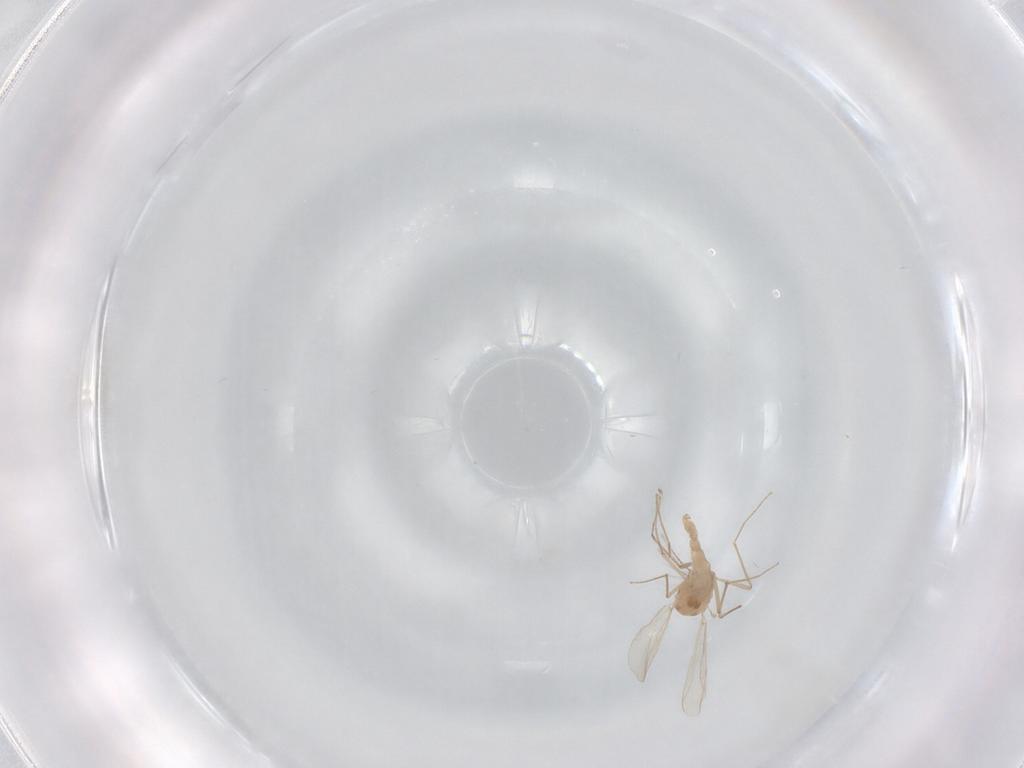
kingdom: Animalia
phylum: Arthropoda
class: Insecta
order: Diptera
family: Chironomidae
